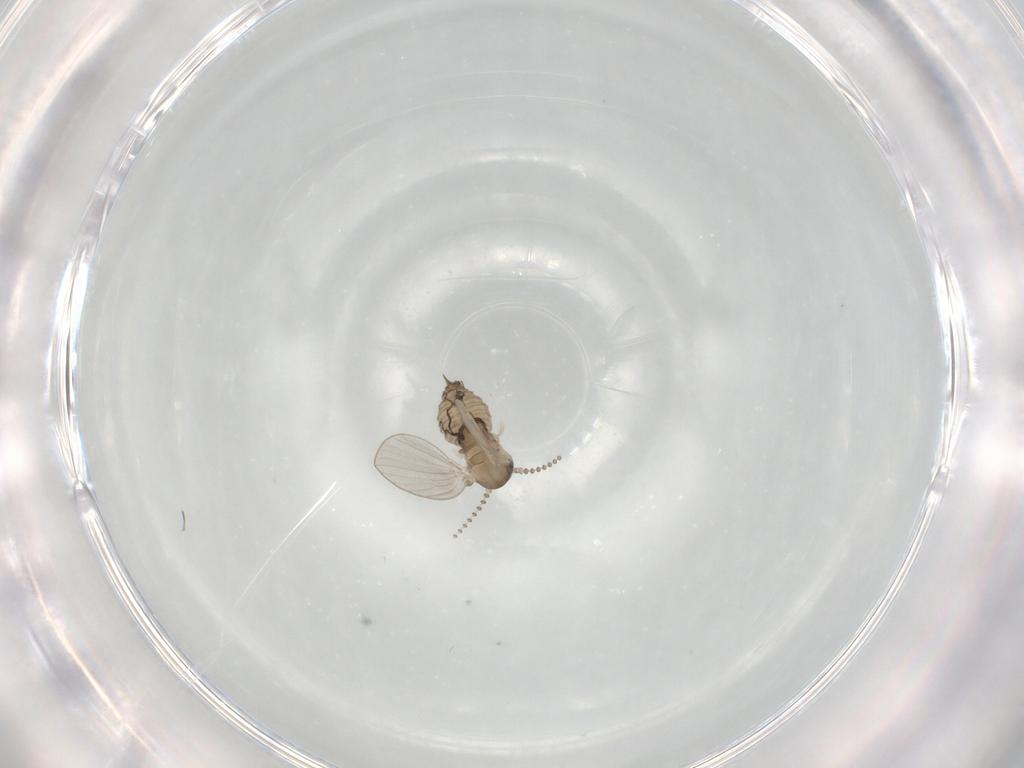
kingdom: Animalia
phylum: Arthropoda
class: Insecta
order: Diptera
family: Psychodidae
